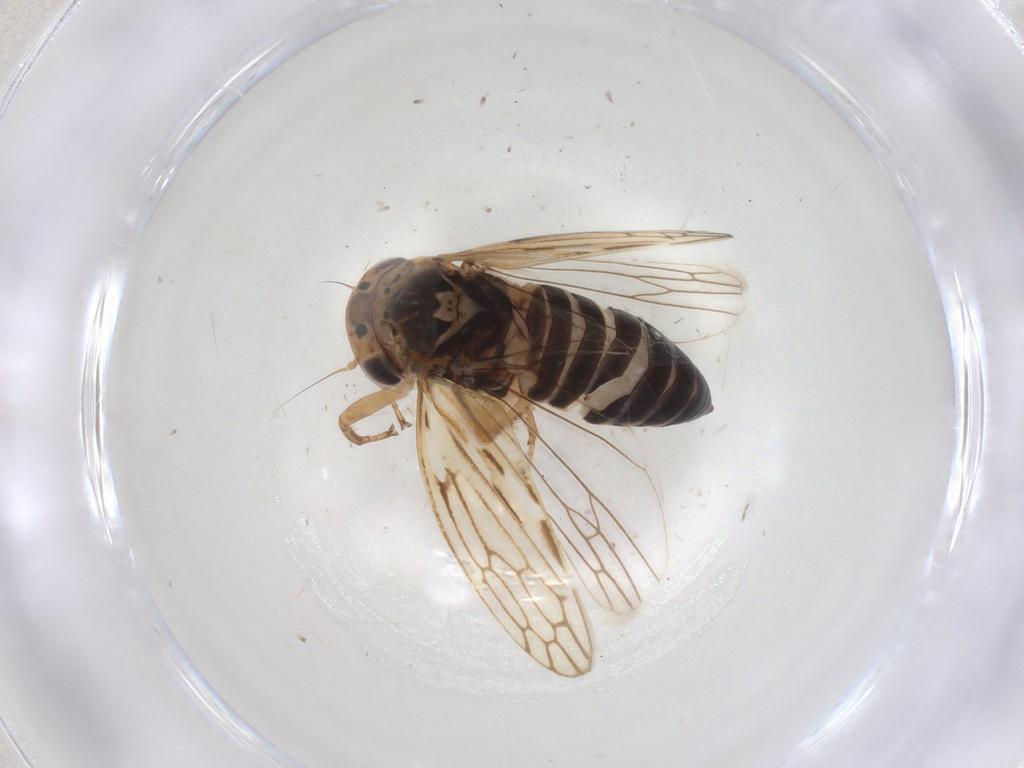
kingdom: Animalia
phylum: Arthropoda
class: Insecta
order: Hemiptera
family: Cicadellidae
